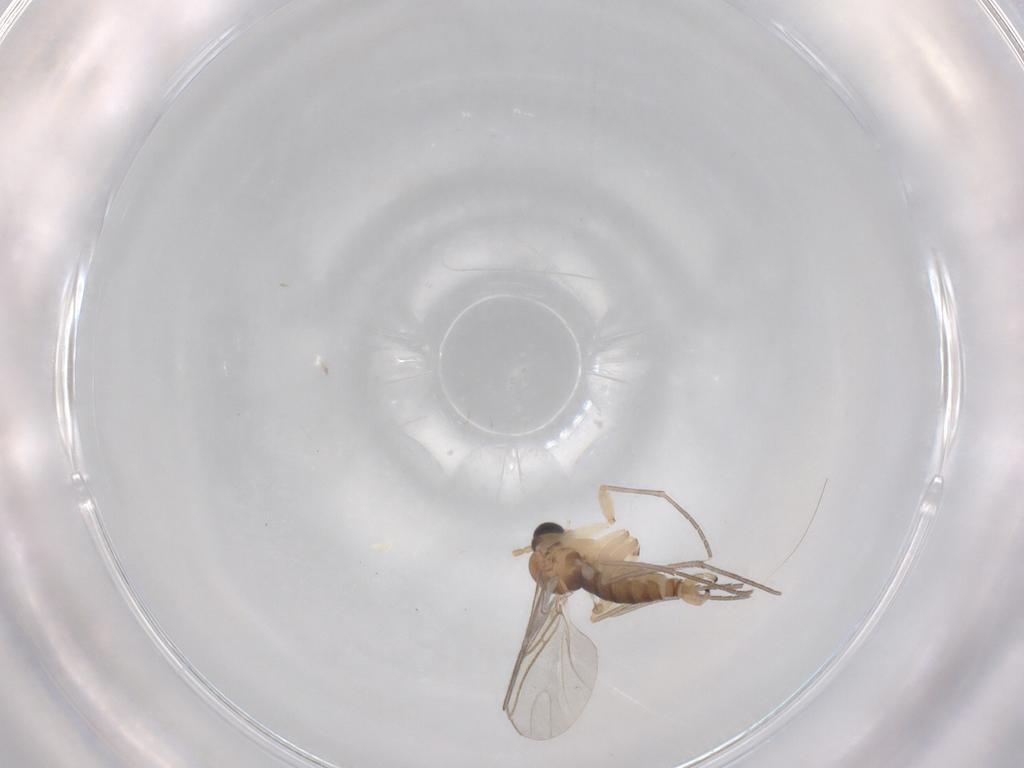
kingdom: Animalia
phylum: Arthropoda
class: Insecta
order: Diptera
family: Sciaridae
